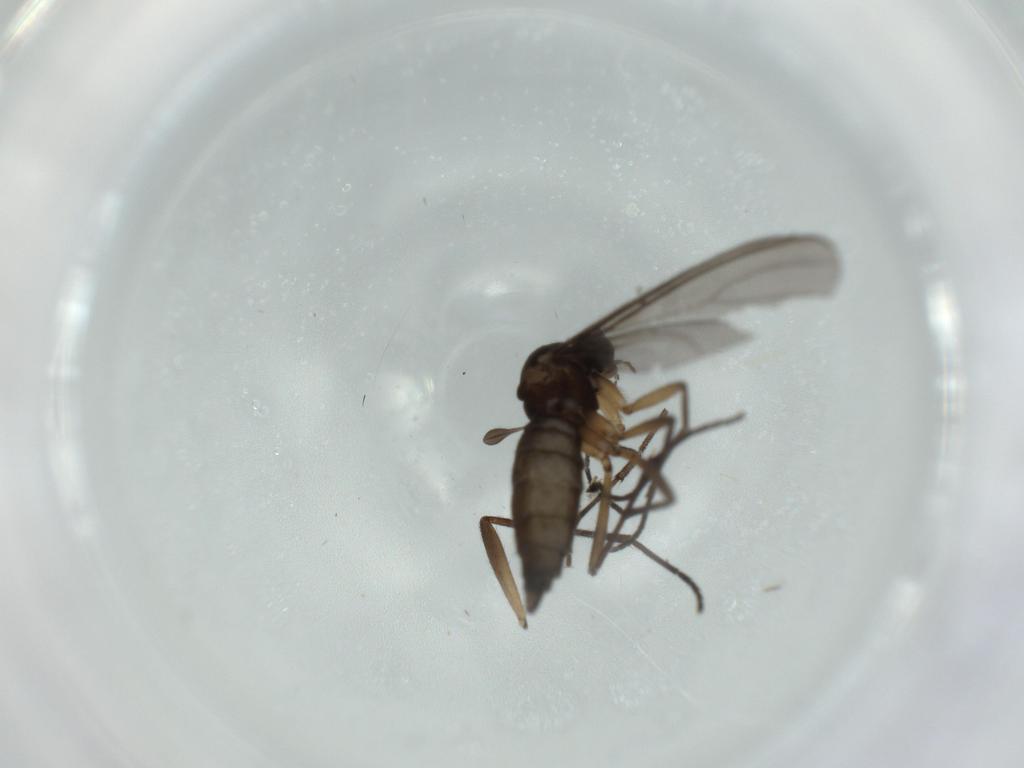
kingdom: Animalia
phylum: Arthropoda
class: Insecta
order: Diptera
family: Sciaridae
